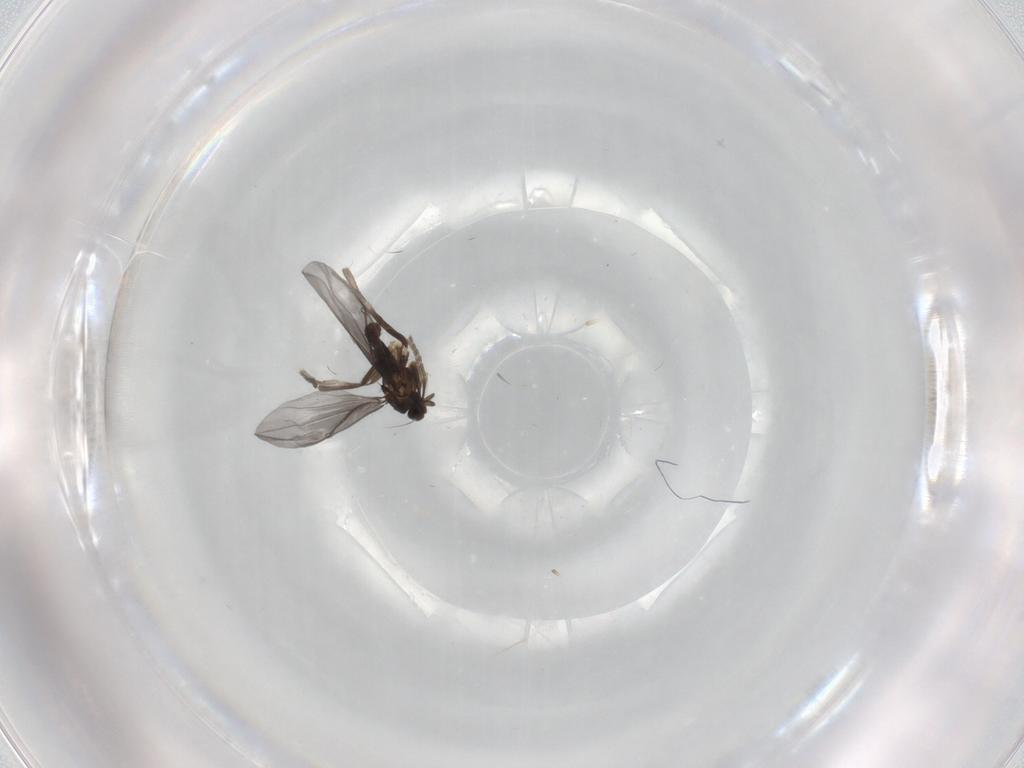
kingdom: Animalia
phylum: Arthropoda
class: Insecta
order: Diptera
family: Phoridae
